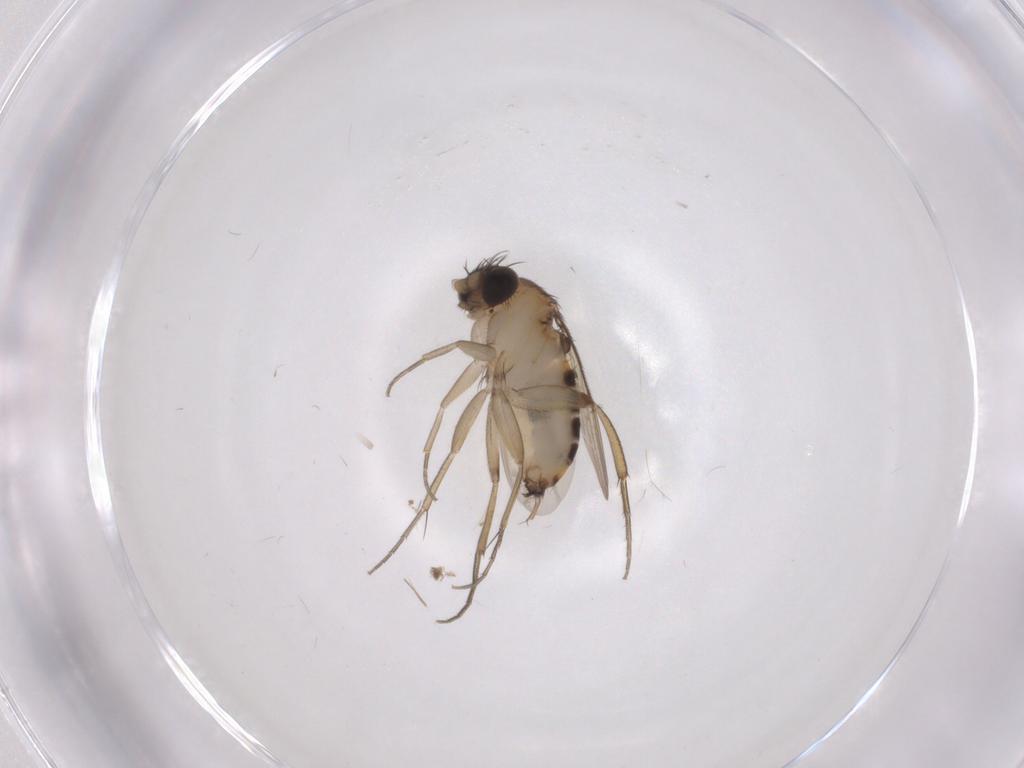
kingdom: Animalia
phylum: Arthropoda
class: Insecta
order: Diptera
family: Phoridae
